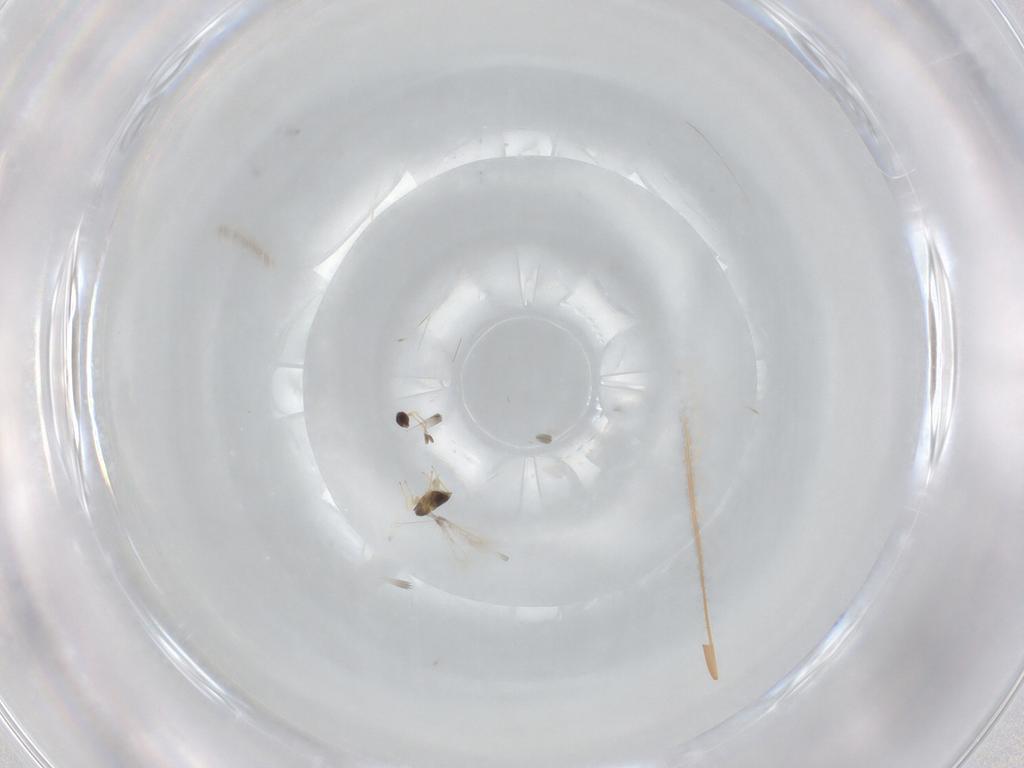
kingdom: Animalia
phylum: Arthropoda
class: Insecta
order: Hymenoptera
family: Mymaridae
